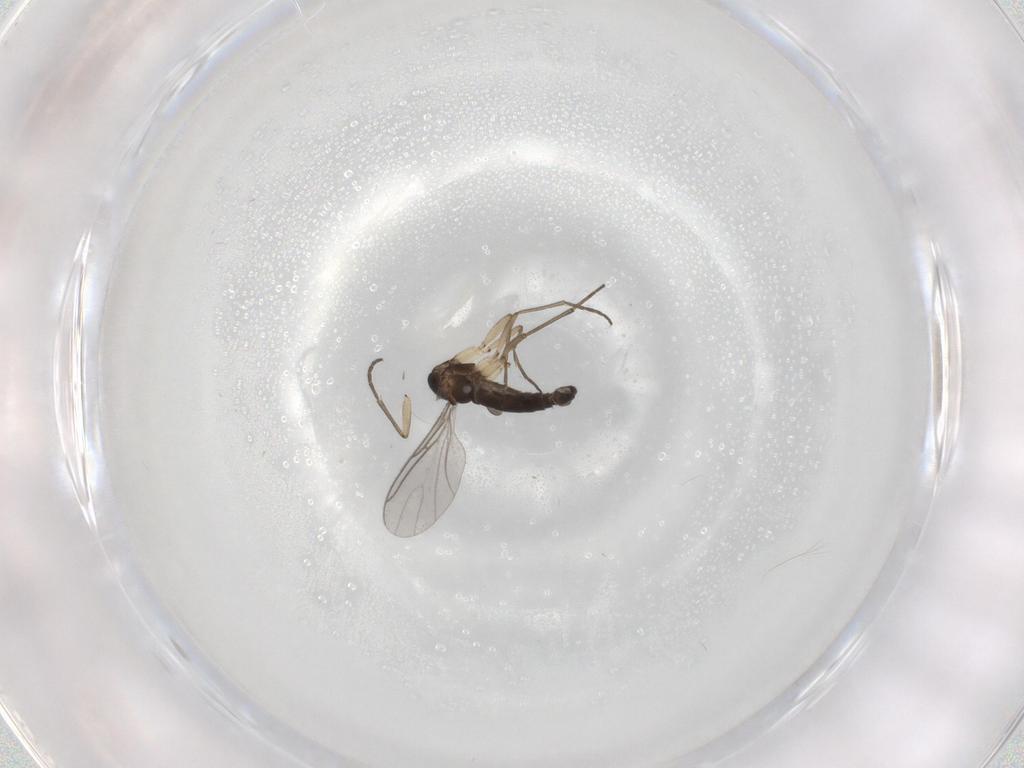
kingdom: Animalia
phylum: Arthropoda
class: Insecta
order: Diptera
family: Sciaridae
